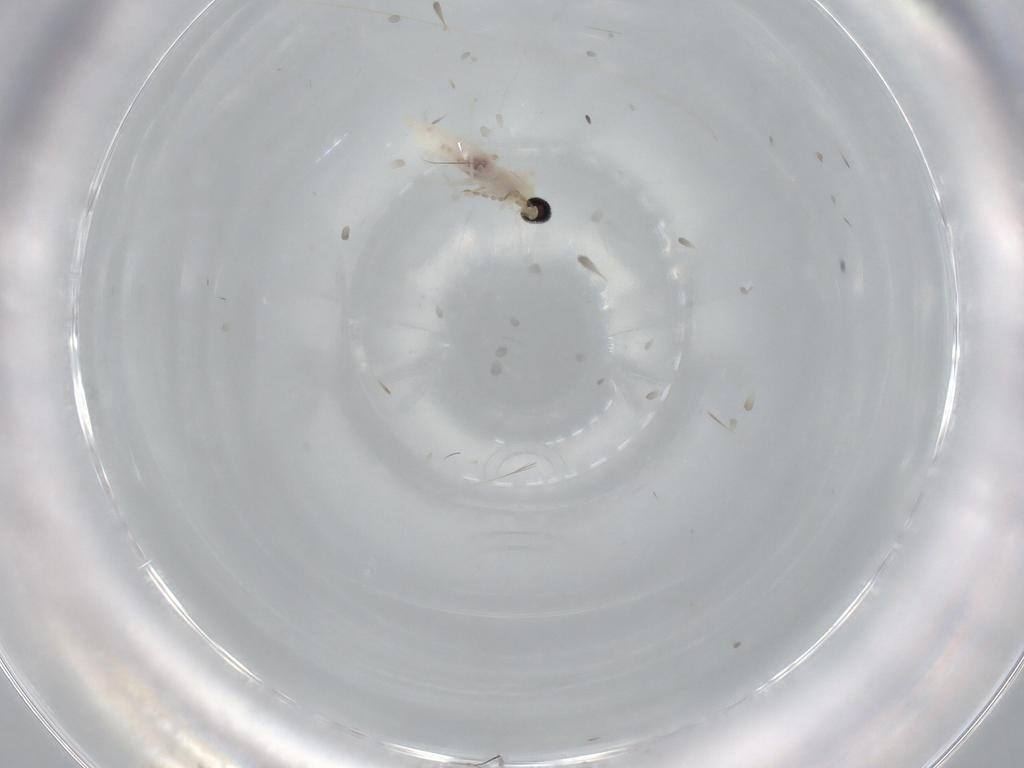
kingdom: Animalia
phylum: Arthropoda
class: Insecta
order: Diptera
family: Cecidomyiidae
